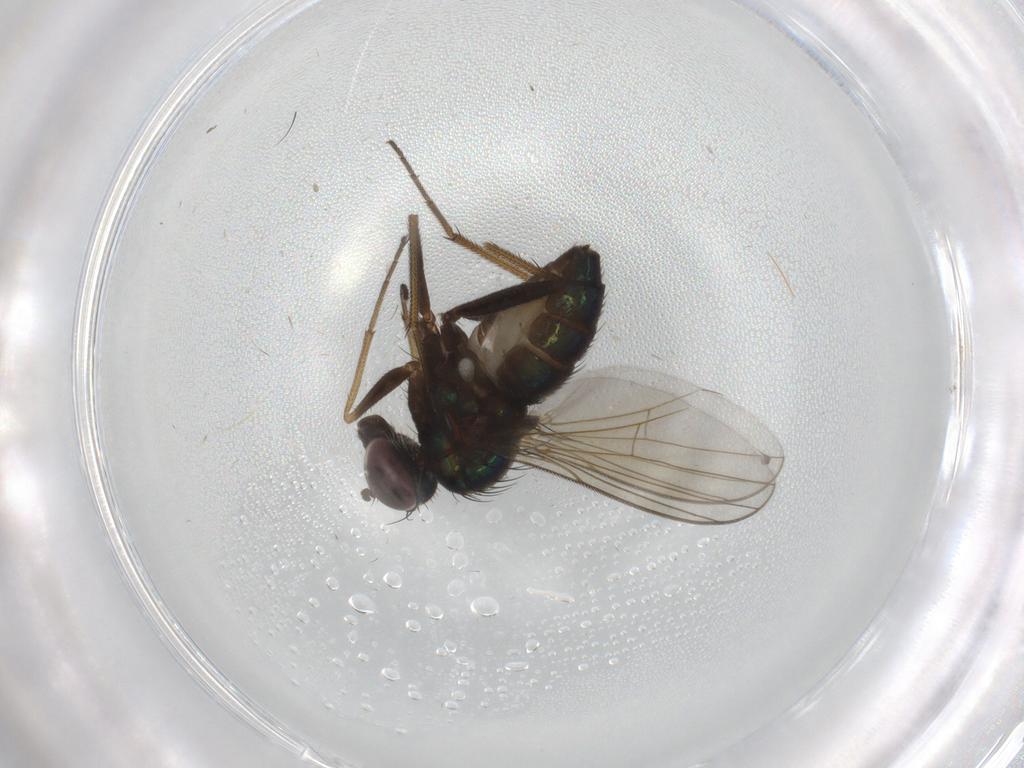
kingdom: Animalia
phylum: Arthropoda
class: Insecta
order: Diptera
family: Dolichopodidae
